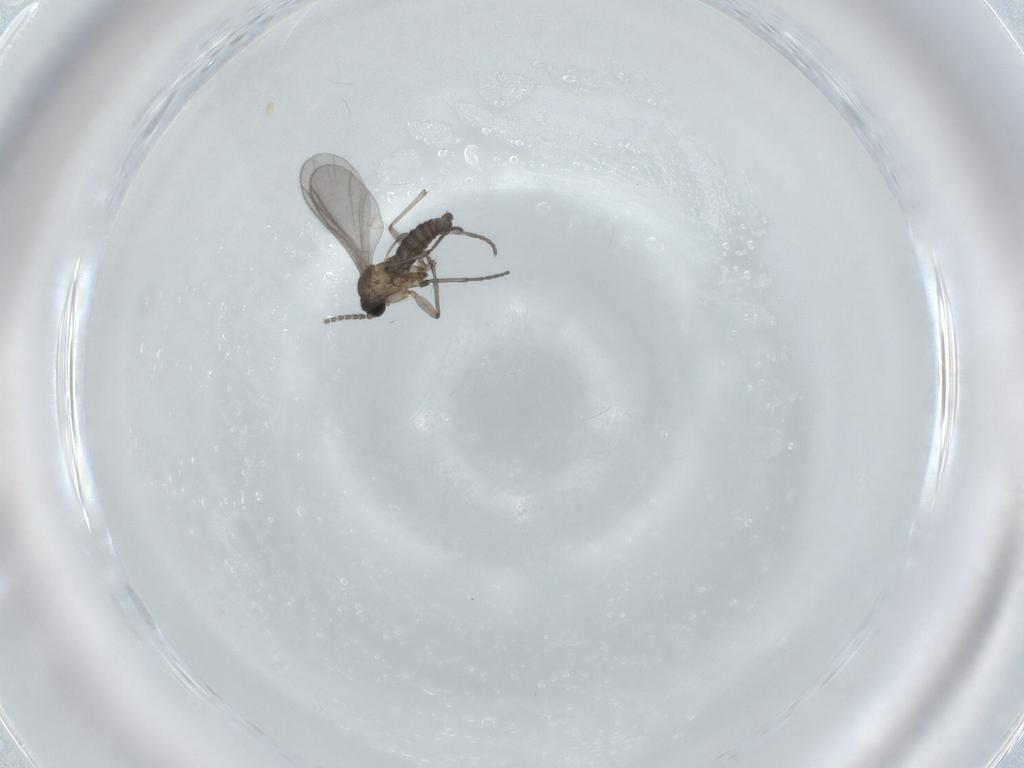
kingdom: Animalia
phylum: Arthropoda
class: Insecta
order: Diptera
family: Sciaridae
